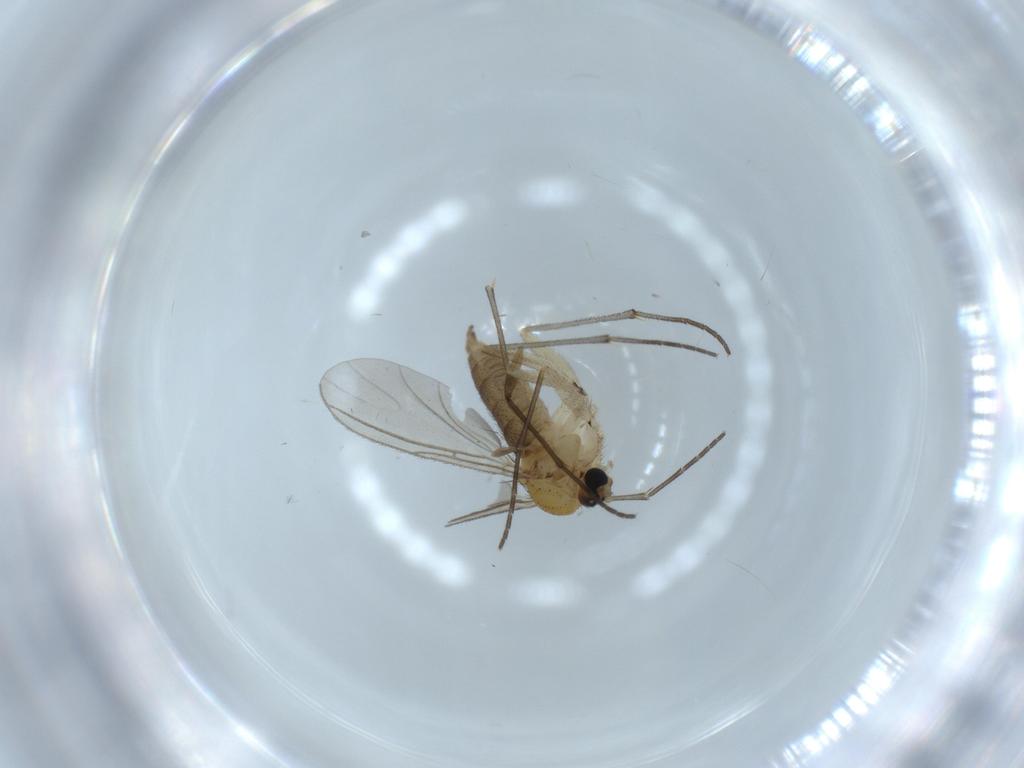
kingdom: Animalia
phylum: Arthropoda
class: Insecta
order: Diptera
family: Sciaridae
